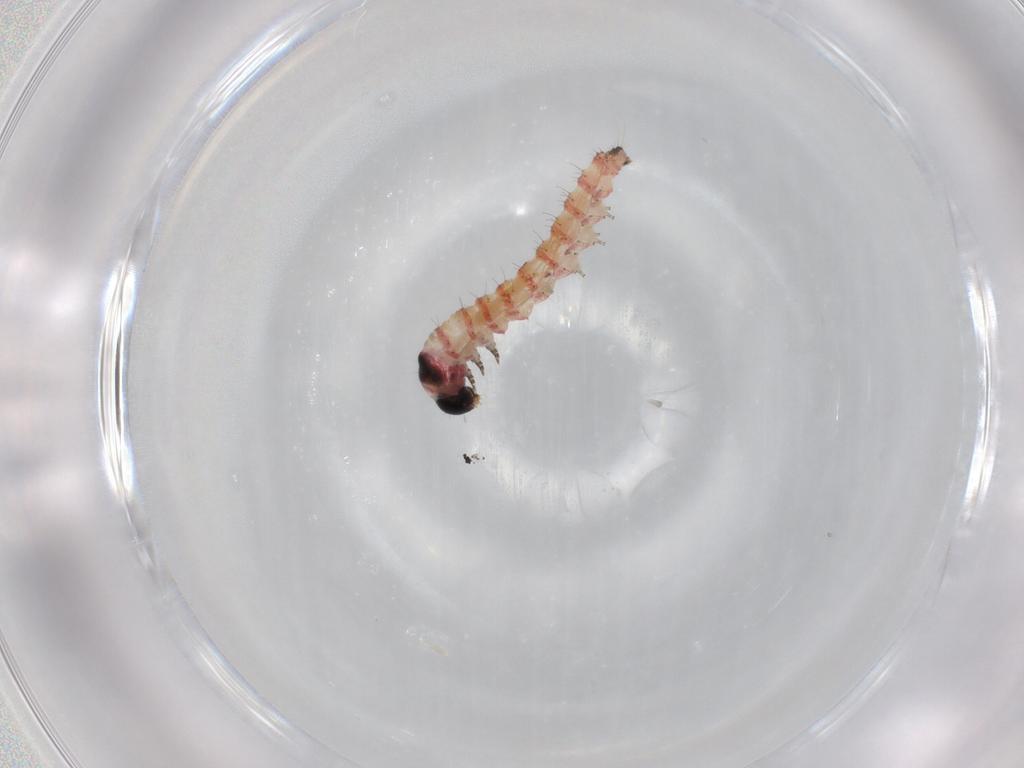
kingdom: Animalia
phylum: Arthropoda
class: Insecta
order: Lepidoptera
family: Gelechiidae
